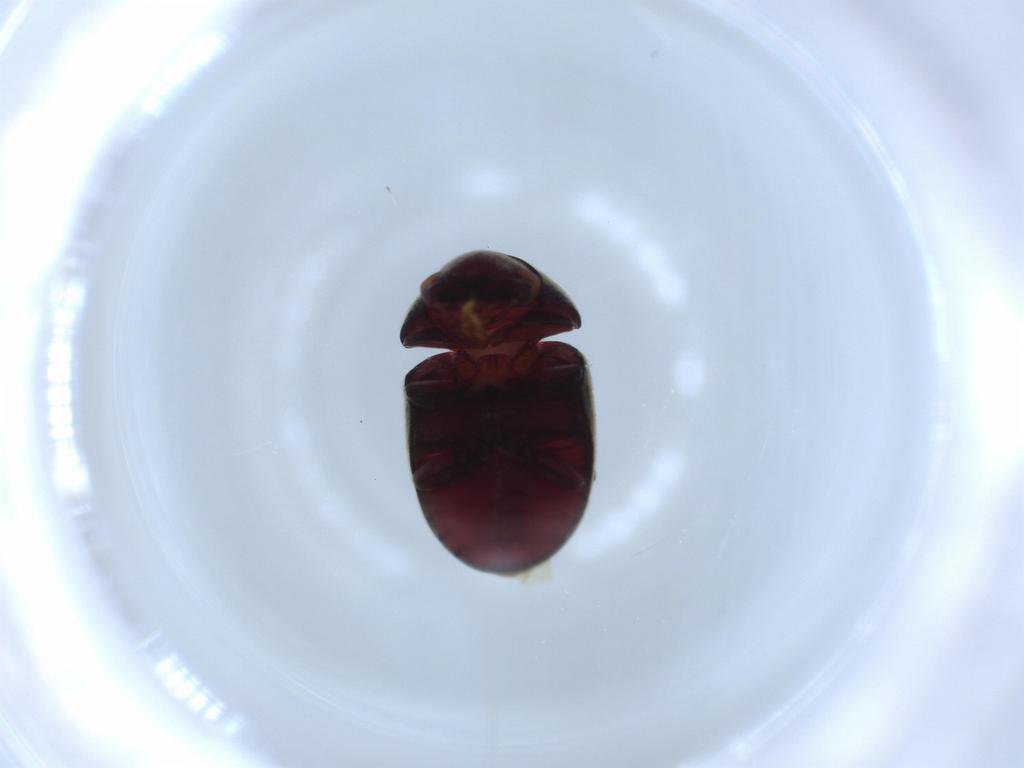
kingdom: Animalia
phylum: Arthropoda
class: Insecta
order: Coleoptera
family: Ptinidae
